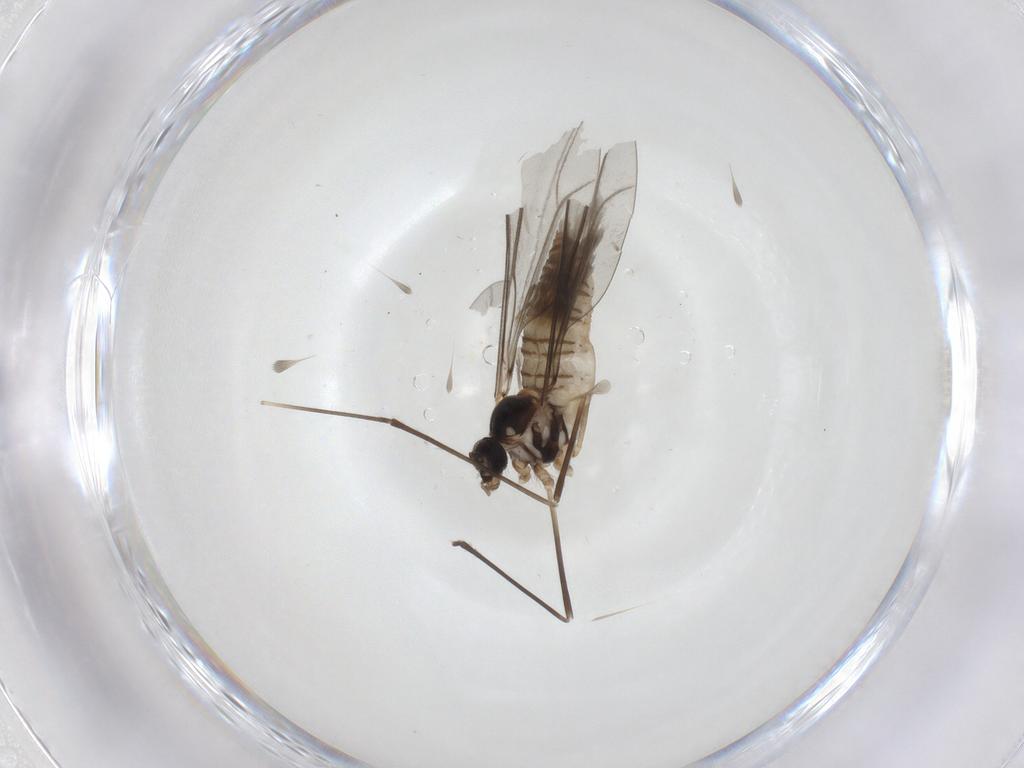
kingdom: Animalia
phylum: Arthropoda
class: Insecta
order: Diptera
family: Cecidomyiidae
